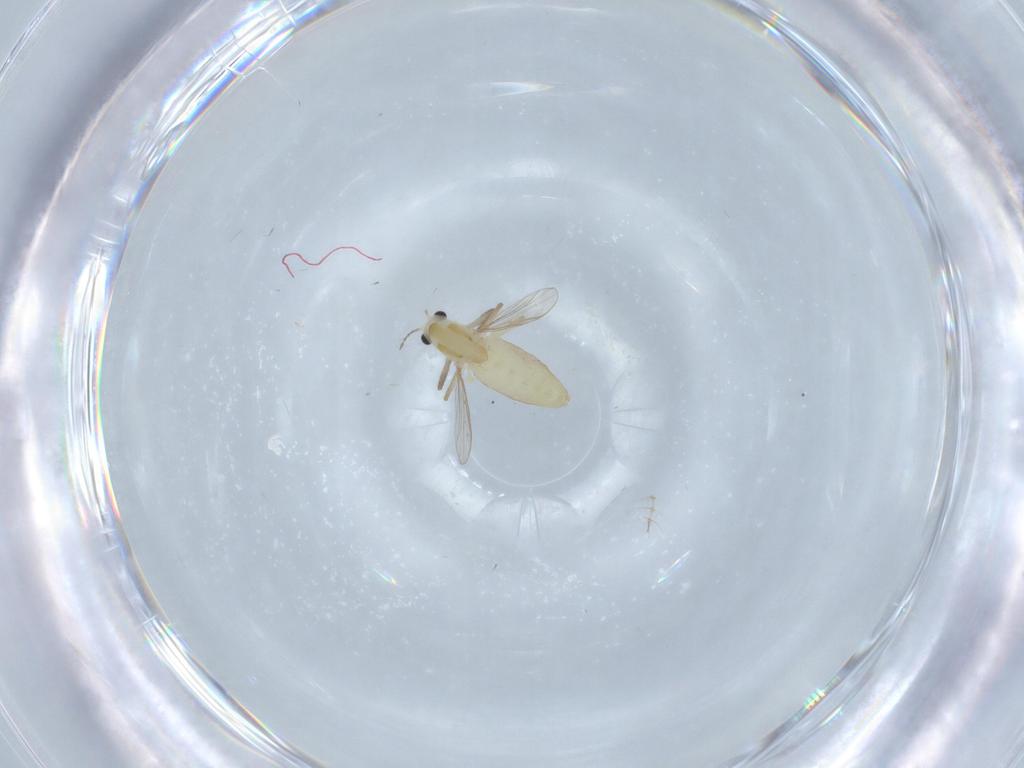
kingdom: Animalia
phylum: Arthropoda
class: Insecta
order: Diptera
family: Chironomidae
